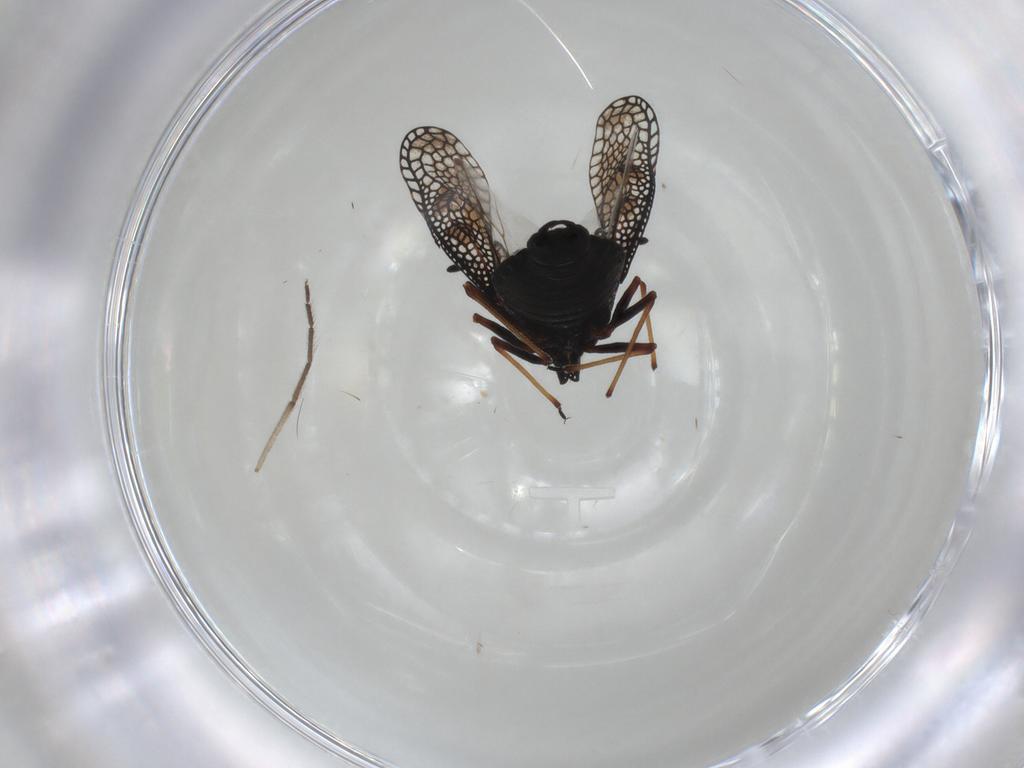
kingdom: Animalia
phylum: Arthropoda
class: Insecta
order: Hemiptera
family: Tingidae
